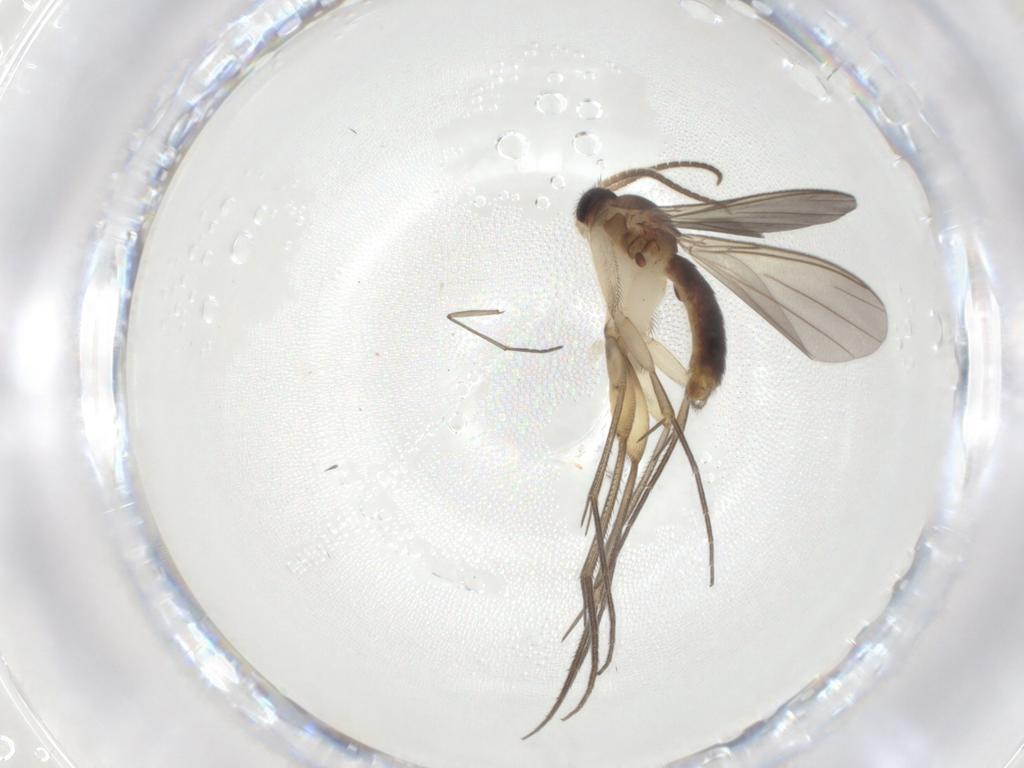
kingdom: Animalia
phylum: Arthropoda
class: Insecta
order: Diptera
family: Mycetophilidae
